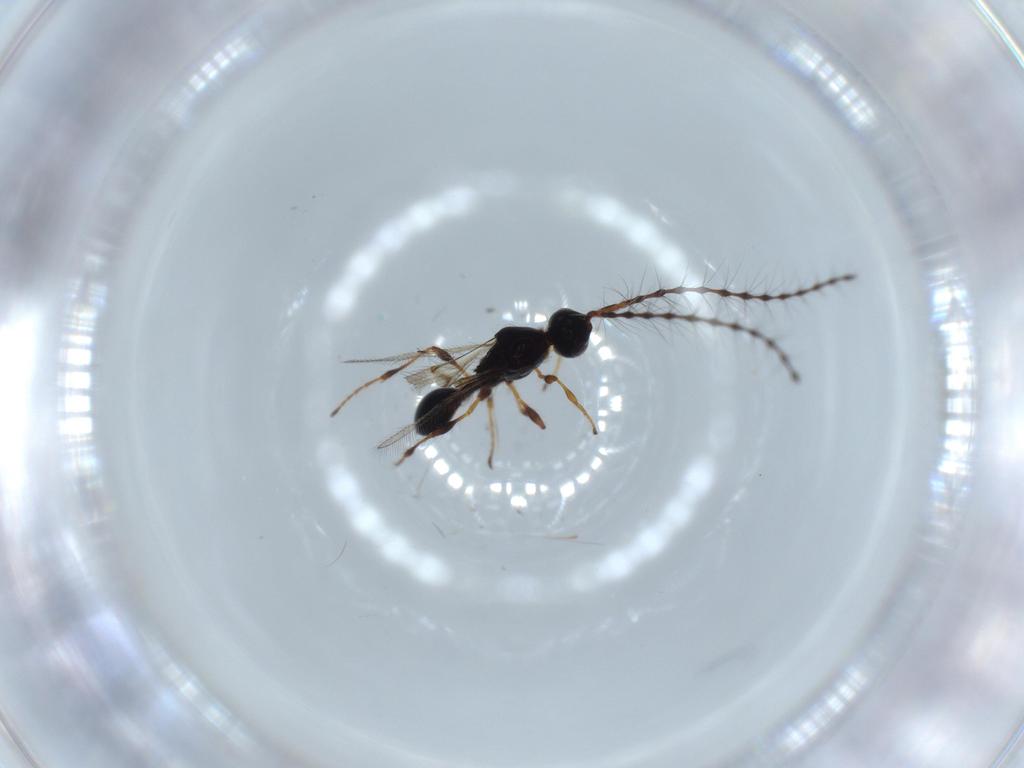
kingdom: Animalia
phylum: Arthropoda
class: Insecta
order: Hymenoptera
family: Diapriidae
